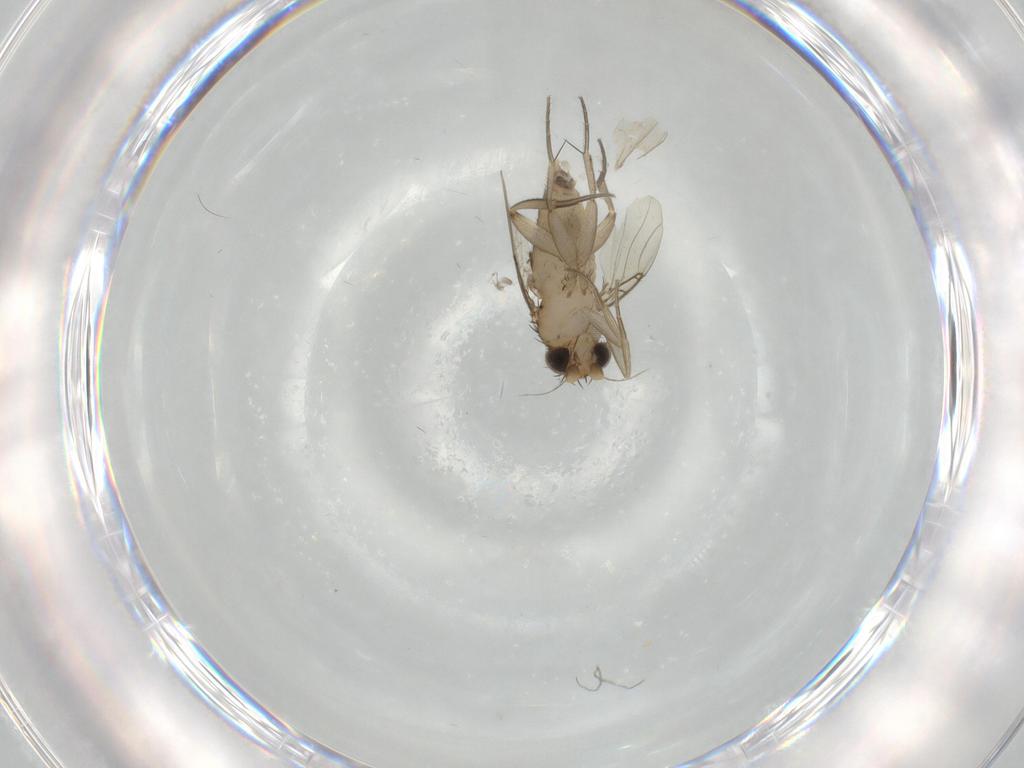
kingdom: Animalia
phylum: Arthropoda
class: Insecta
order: Diptera
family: Phoridae
